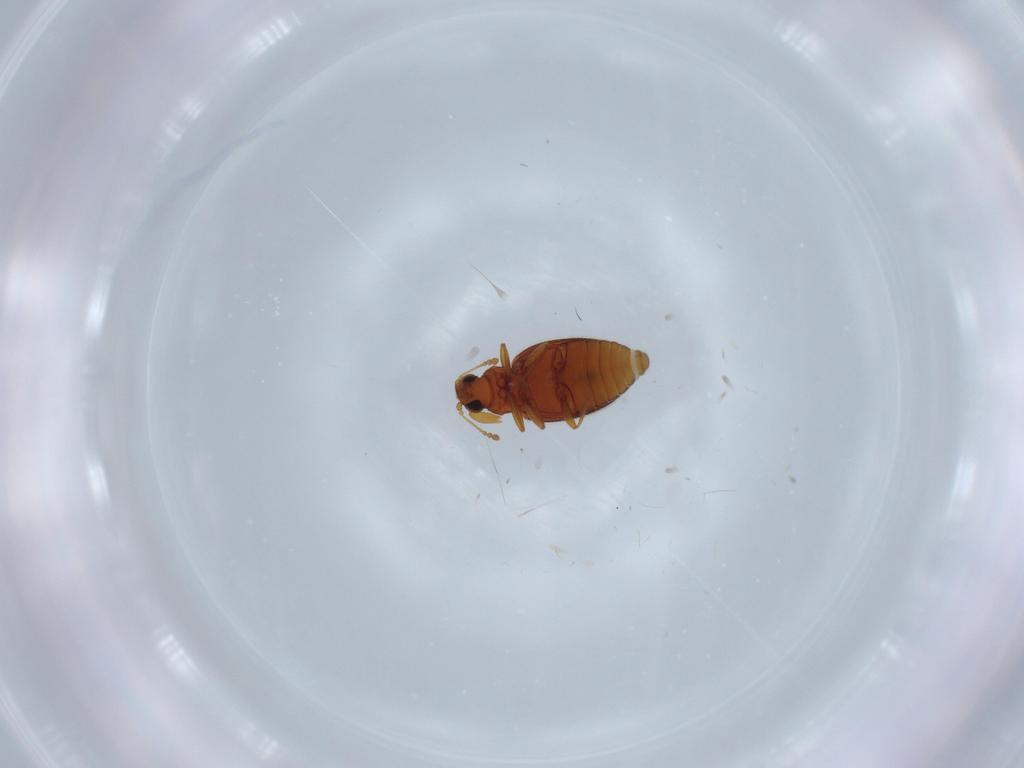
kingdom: Animalia
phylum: Arthropoda
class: Insecta
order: Coleoptera
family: Latridiidae
